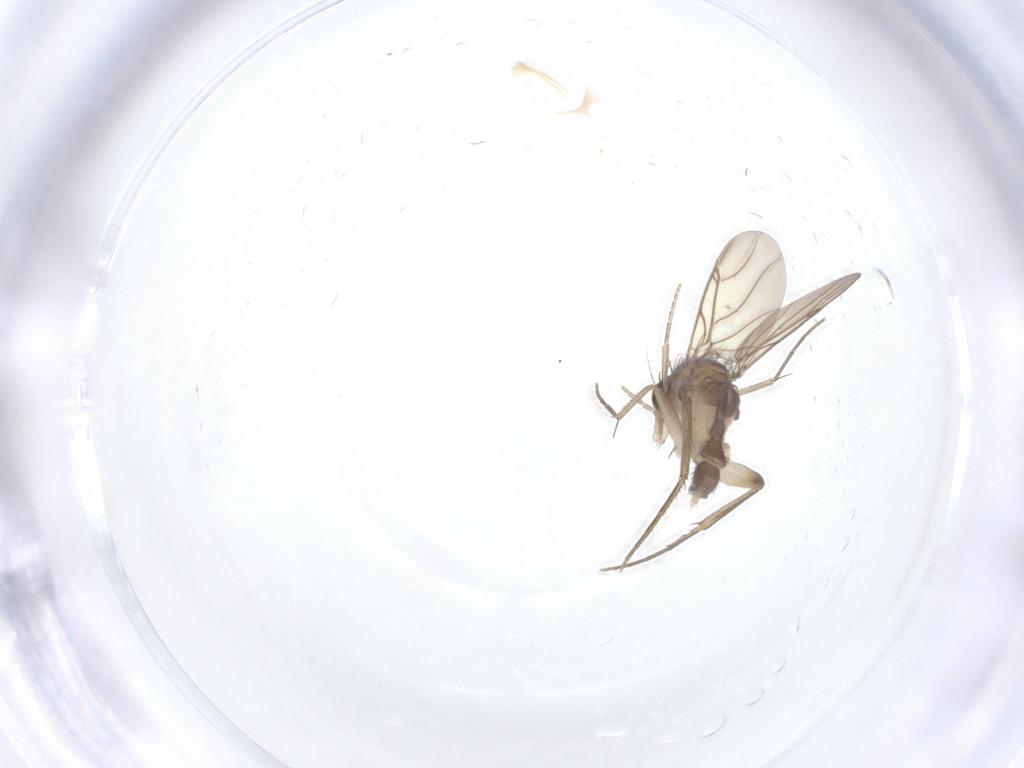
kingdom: Animalia
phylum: Arthropoda
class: Insecta
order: Diptera
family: Phoridae
